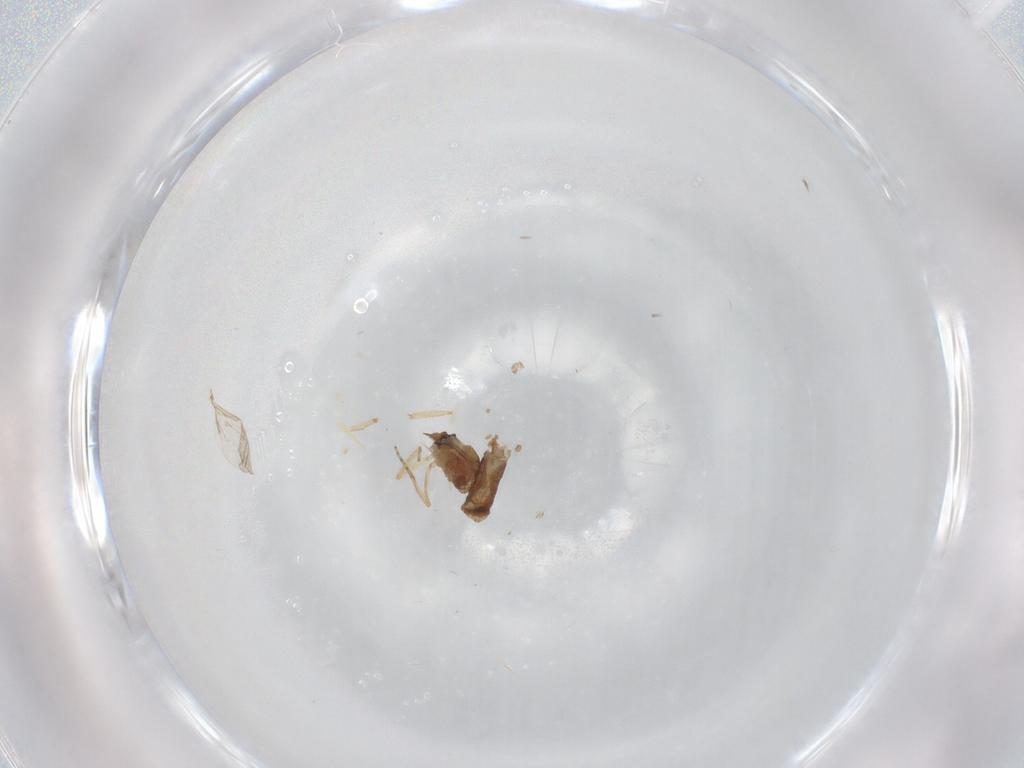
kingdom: Animalia
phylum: Arthropoda
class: Insecta
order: Diptera
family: Ceratopogonidae
